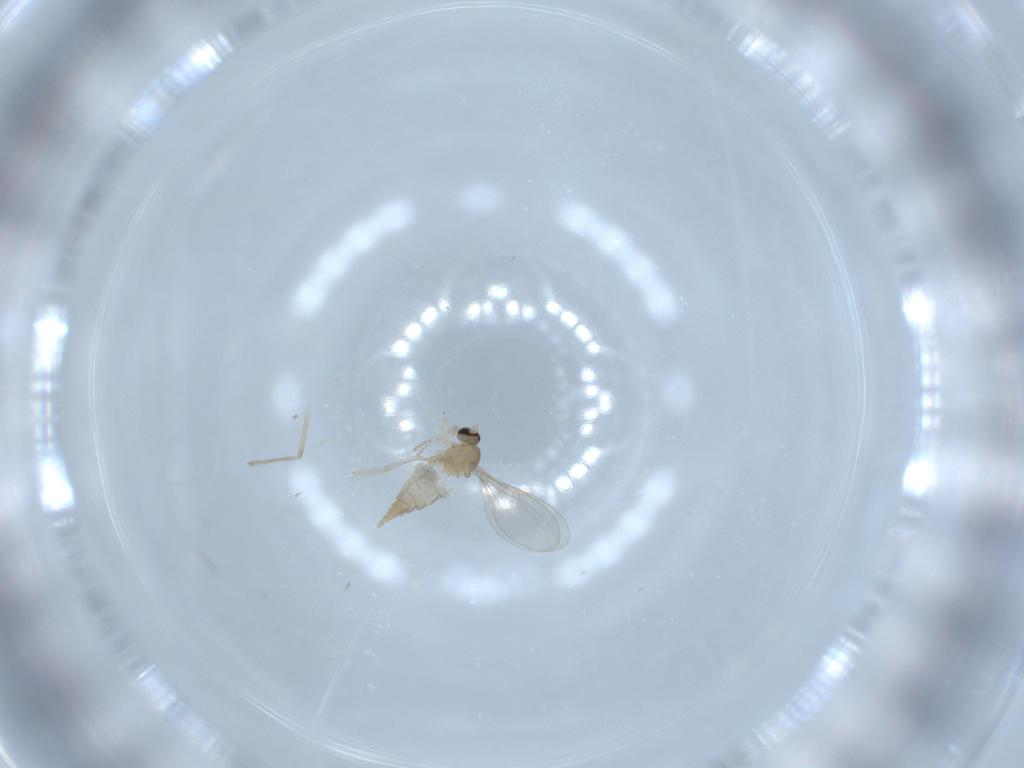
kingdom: Animalia
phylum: Arthropoda
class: Insecta
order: Diptera
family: Cecidomyiidae
